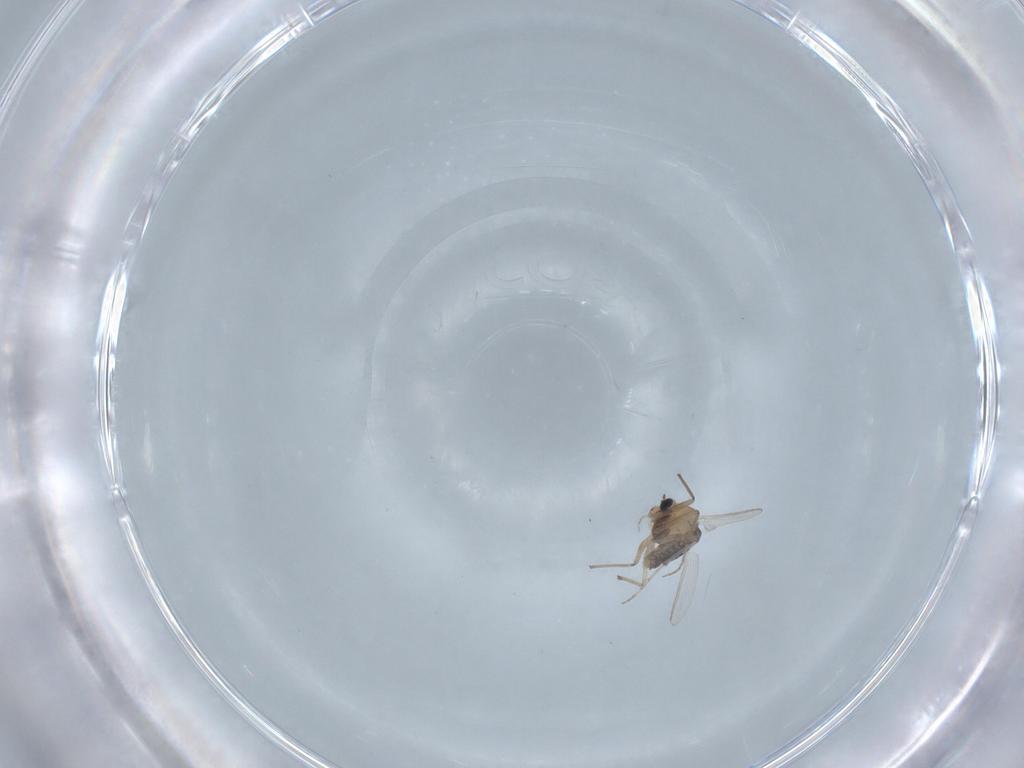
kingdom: Animalia
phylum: Arthropoda
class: Insecta
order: Diptera
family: Chironomidae
